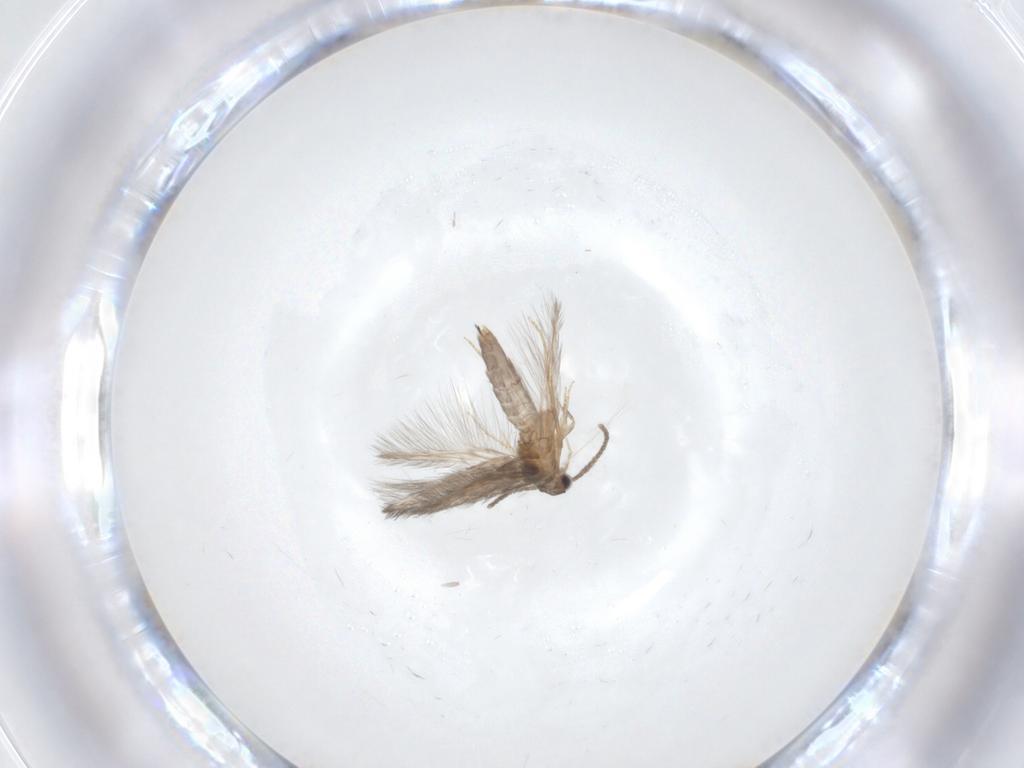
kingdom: Animalia
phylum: Arthropoda
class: Insecta
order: Trichoptera
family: Hydroptilidae
